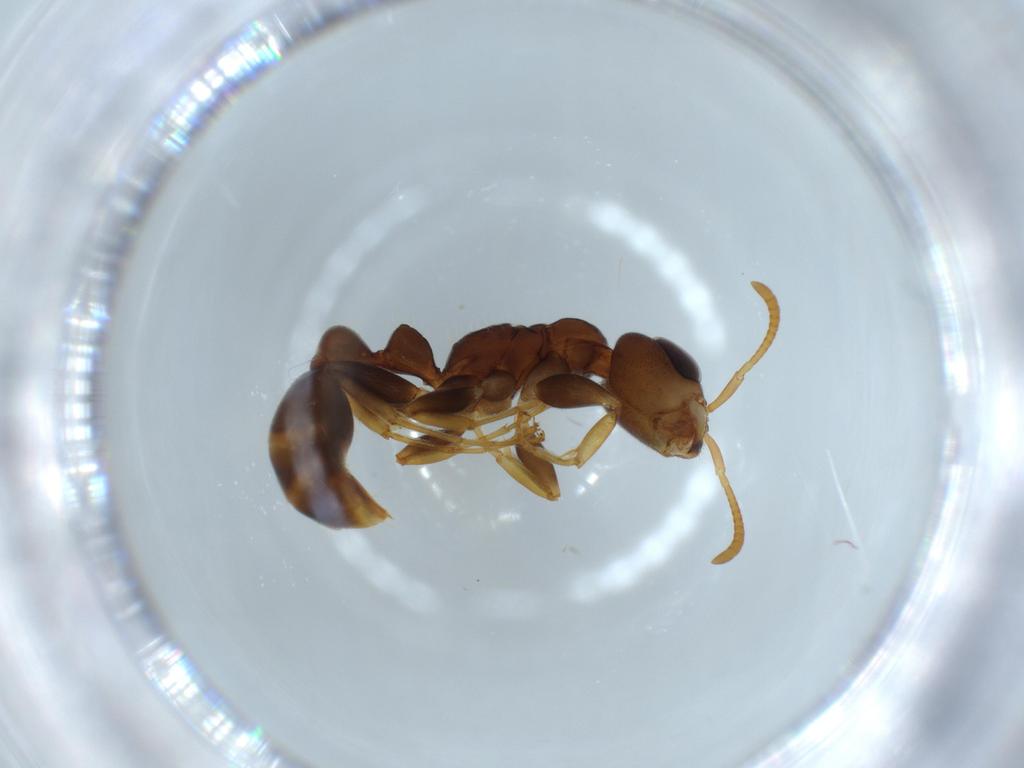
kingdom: Animalia
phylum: Arthropoda
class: Insecta
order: Hymenoptera
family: Formicidae
